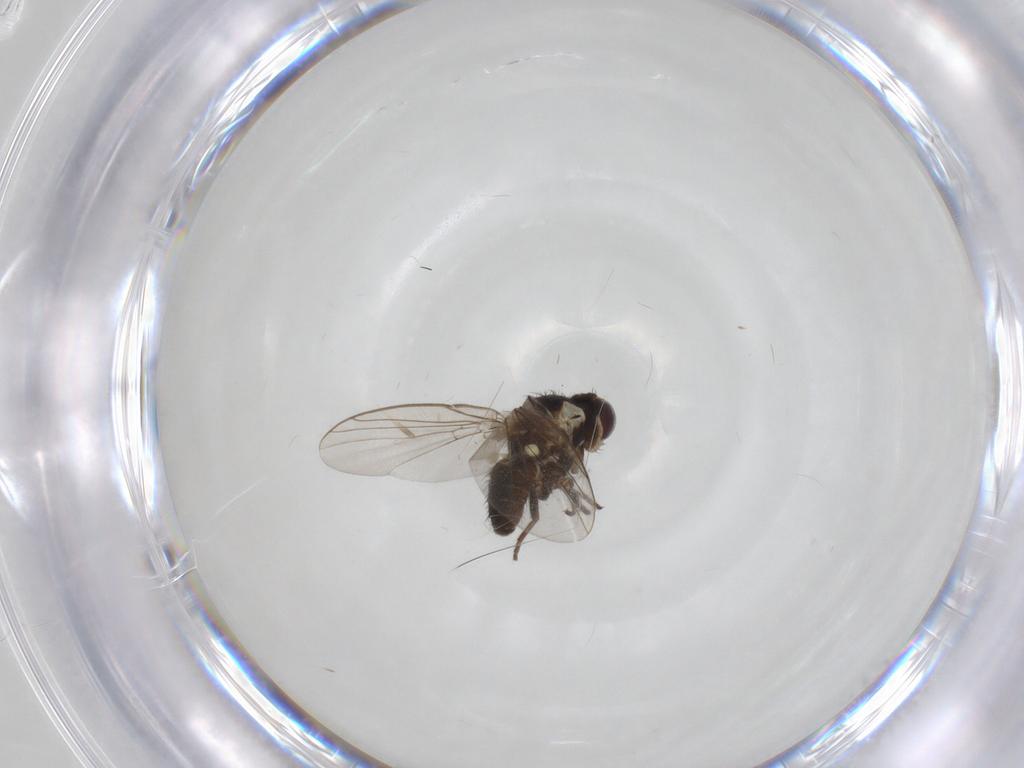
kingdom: Animalia
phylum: Arthropoda
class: Insecta
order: Diptera
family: Agromyzidae
